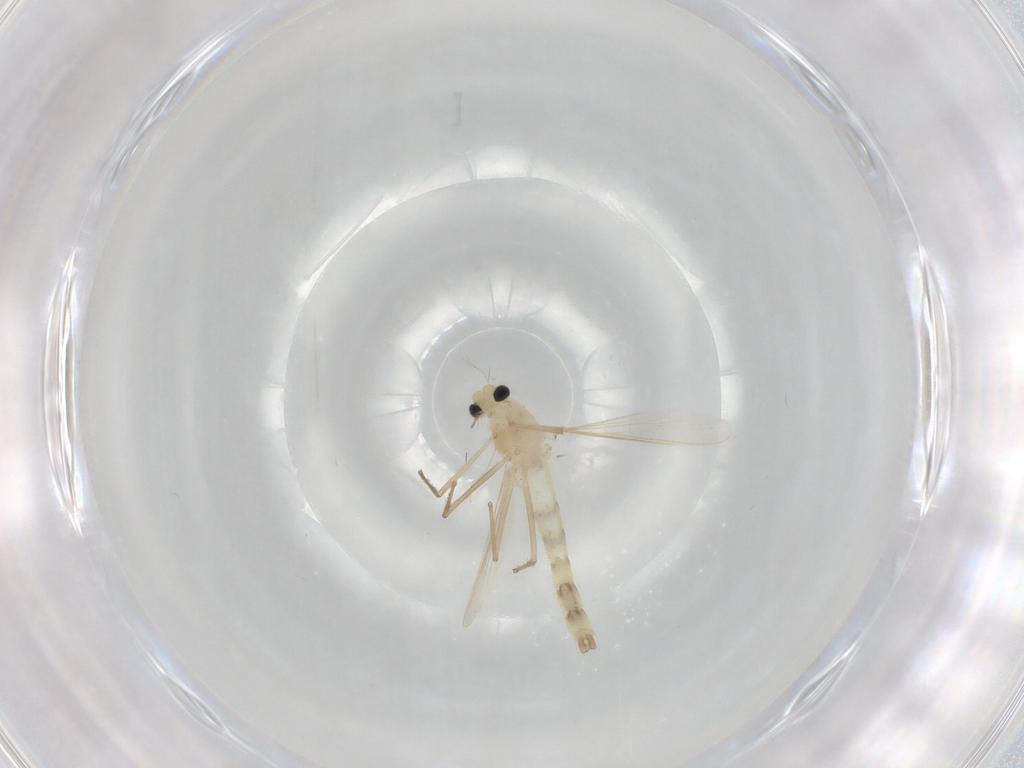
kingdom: Animalia
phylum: Arthropoda
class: Insecta
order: Diptera
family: Chironomidae
